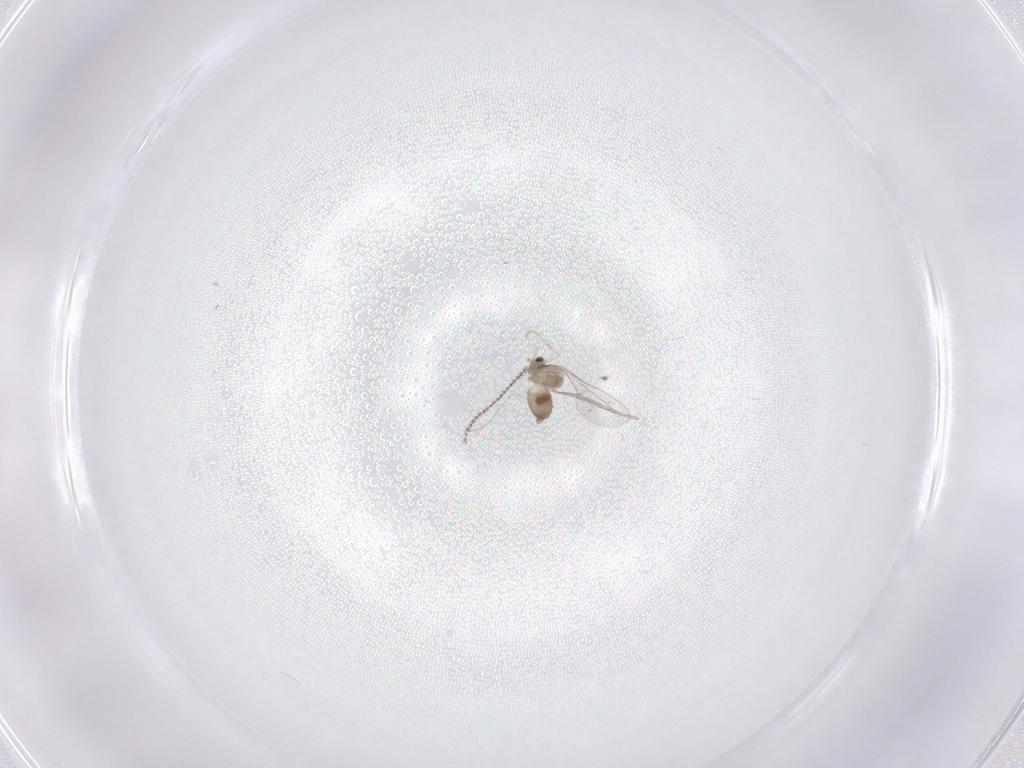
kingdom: Animalia
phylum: Arthropoda
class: Insecta
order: Diptera
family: Cecidomyiidae
